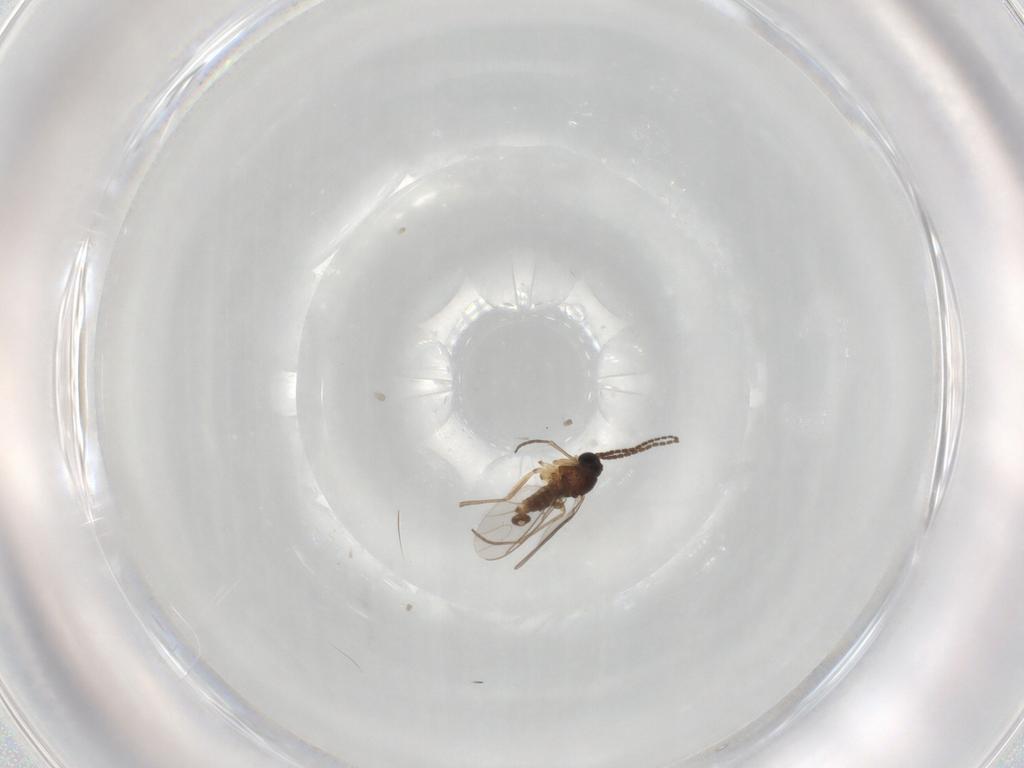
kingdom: Animalia
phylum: Arthropoda
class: Insecta
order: Diptera
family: Sciaridae
